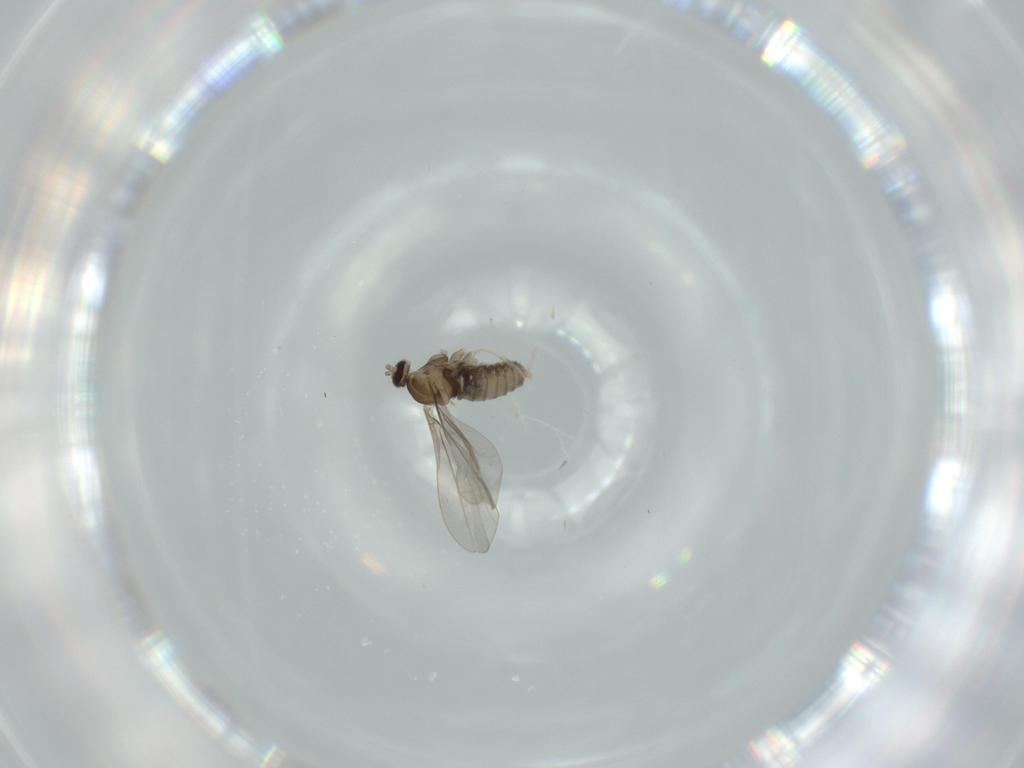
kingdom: Animalia
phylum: Arthropoda
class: Insecta
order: Diptera
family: Cecidomyiidae
